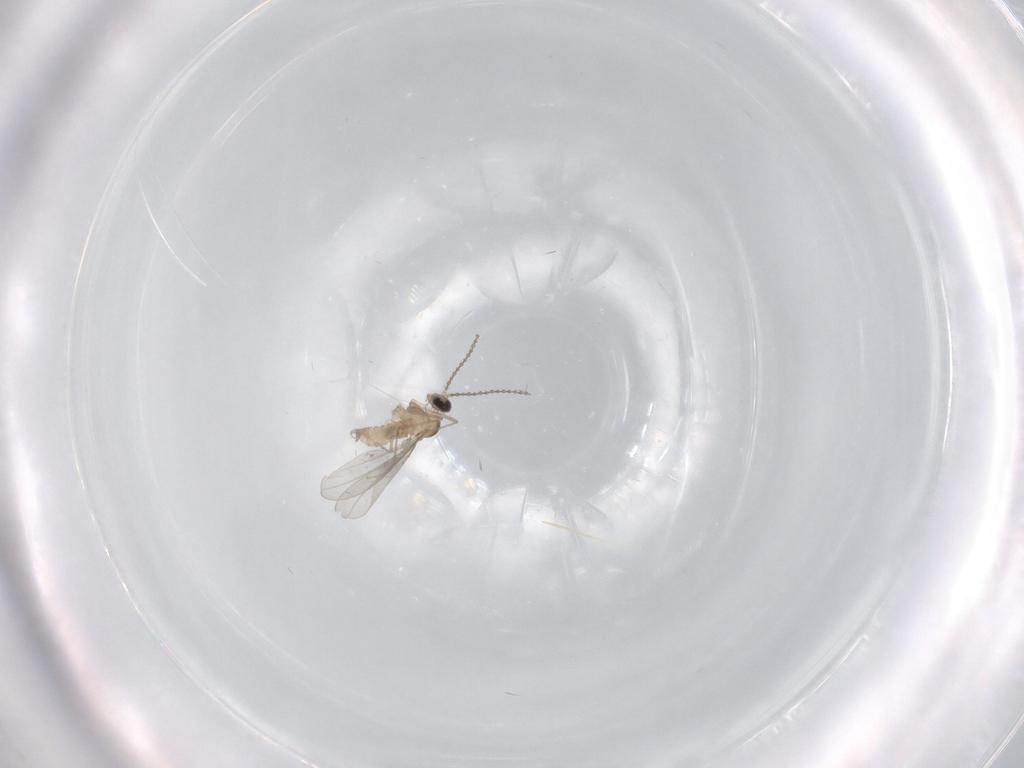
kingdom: Animalia
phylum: Arthropoda
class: Insecta
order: Diptera
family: Cecidomyiidae
